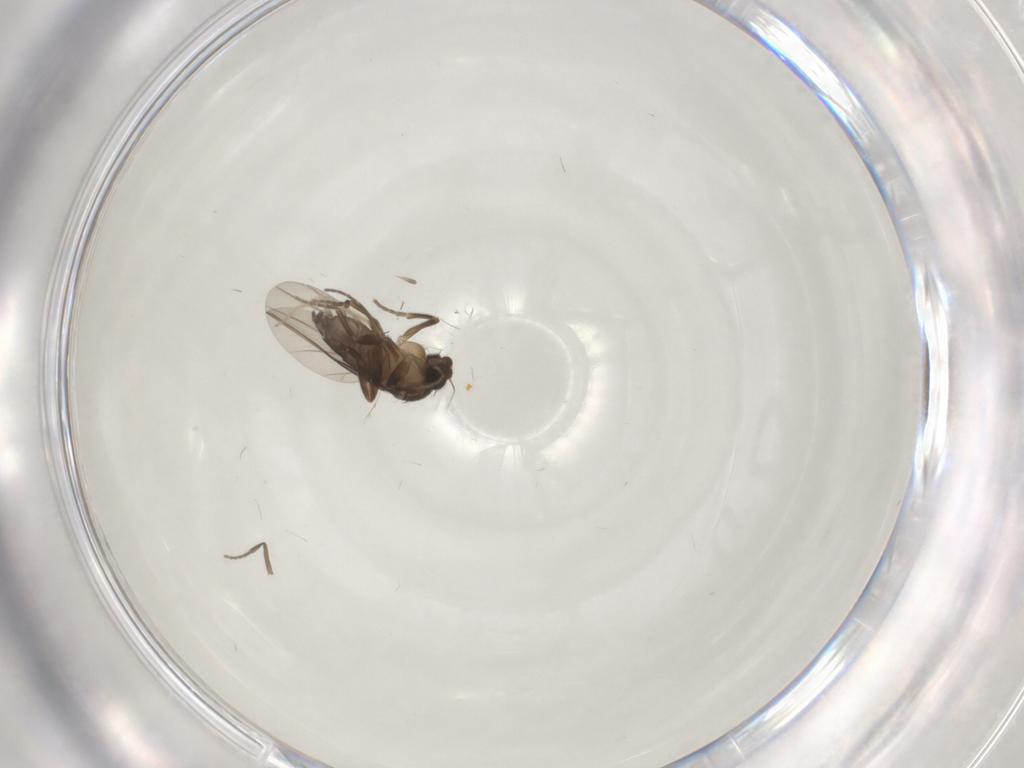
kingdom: Animalia
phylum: Arthropoda
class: Insecta
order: Diptera
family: Chironomidae
